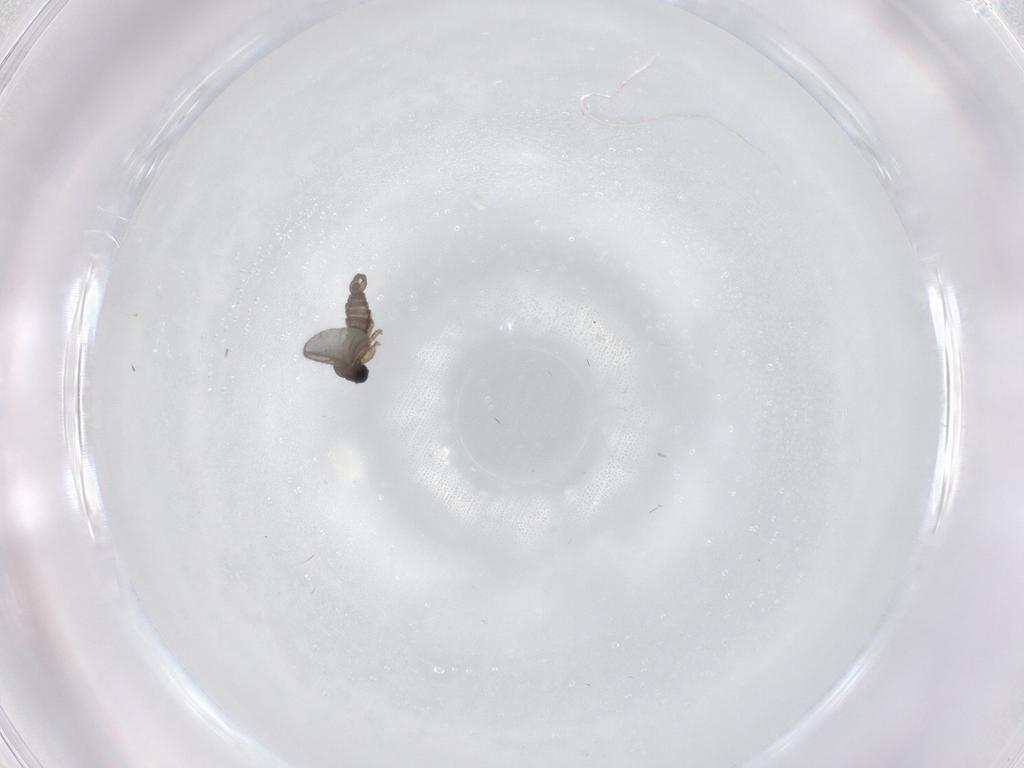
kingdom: Animalia
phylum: Arthropoda
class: Insecta
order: Diptera
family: Sciaridae
